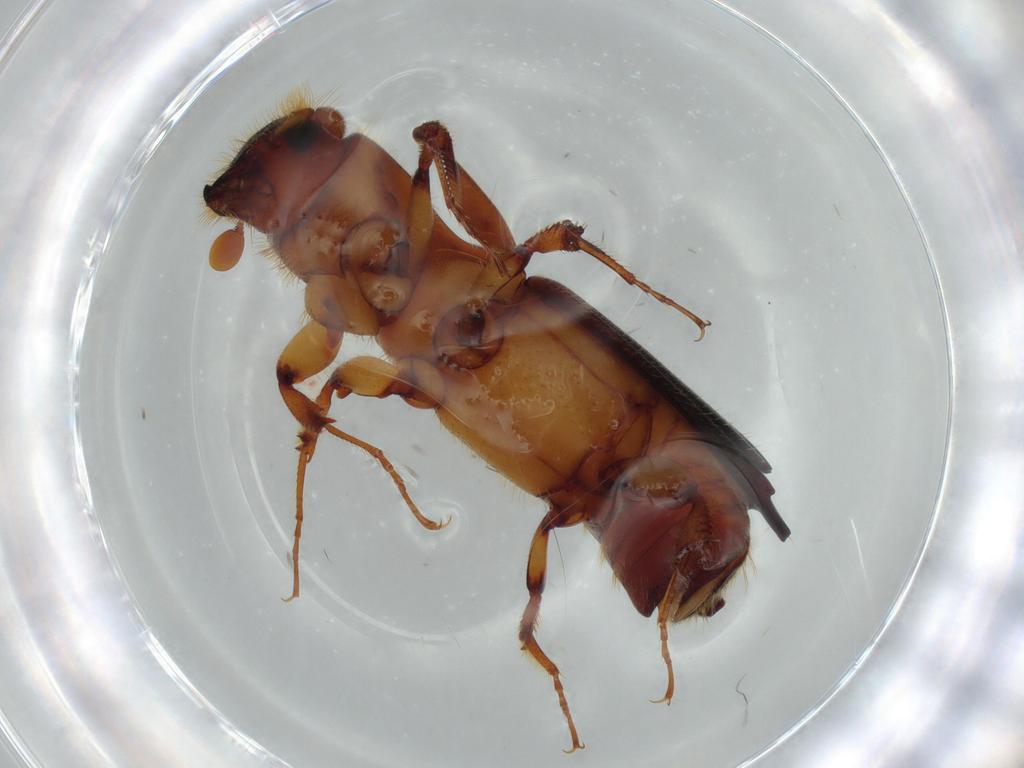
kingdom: Animalia
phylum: Arthropoda
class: Insecta
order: Coleoptera
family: Curculionidae
